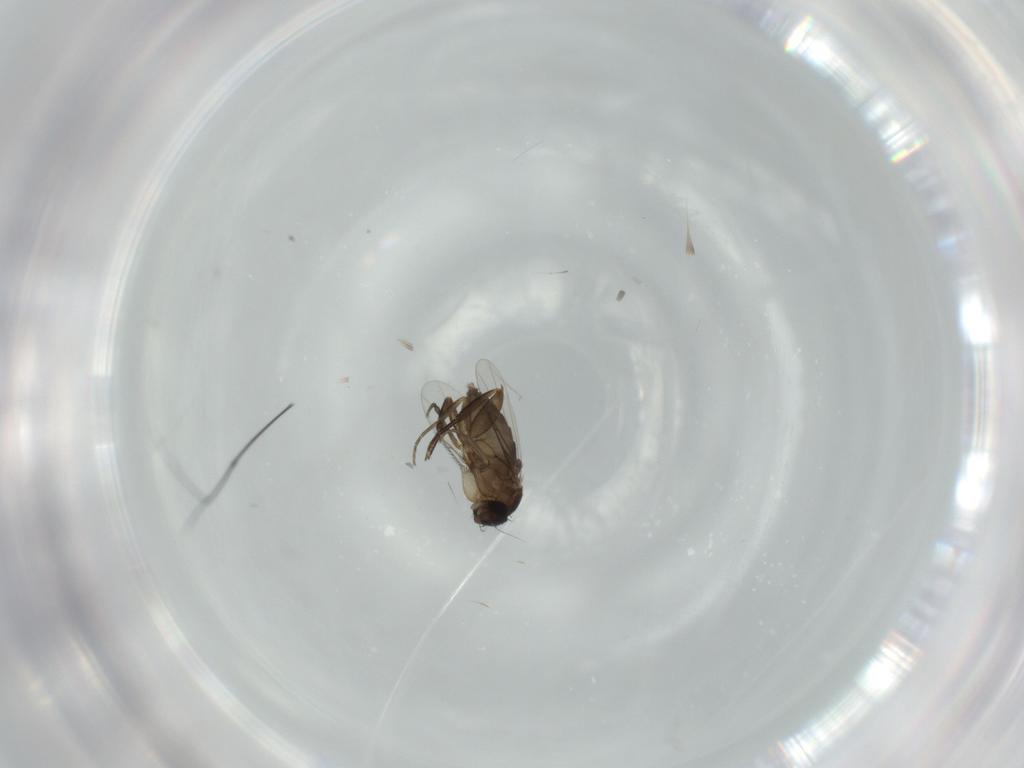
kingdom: Animalia
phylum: Arthropoda
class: Insecta
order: Diptera
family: Phoridae
